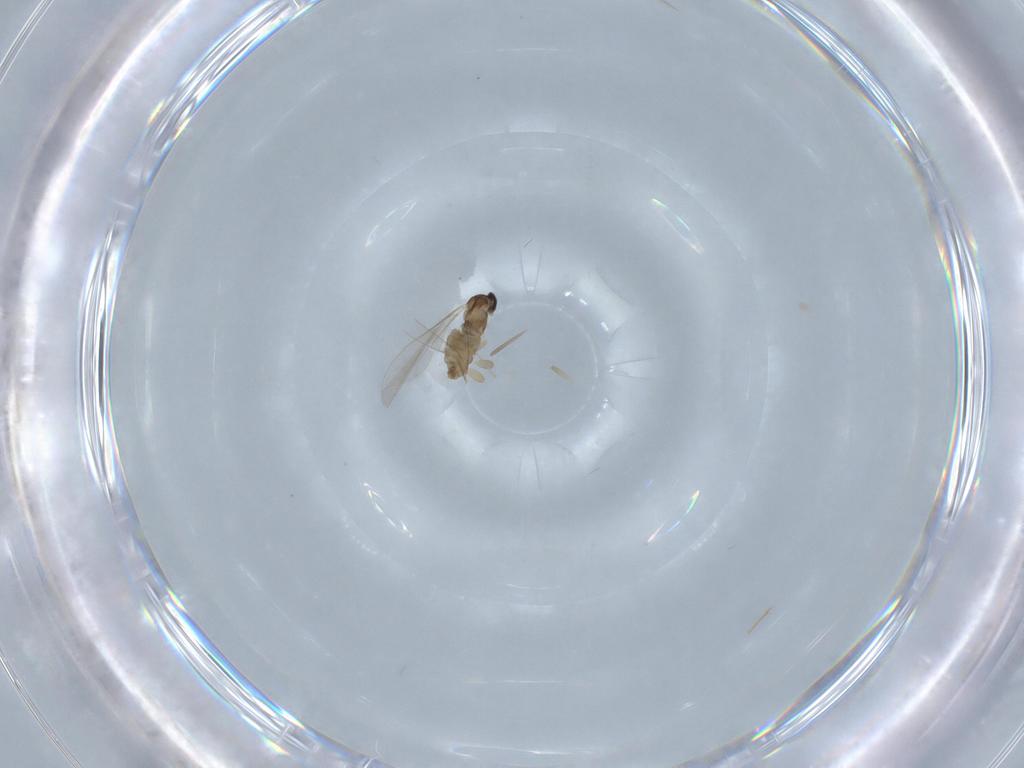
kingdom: Animalia
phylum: Arthropoda
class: Insecta
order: Diptera
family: Cecidomyiidae
